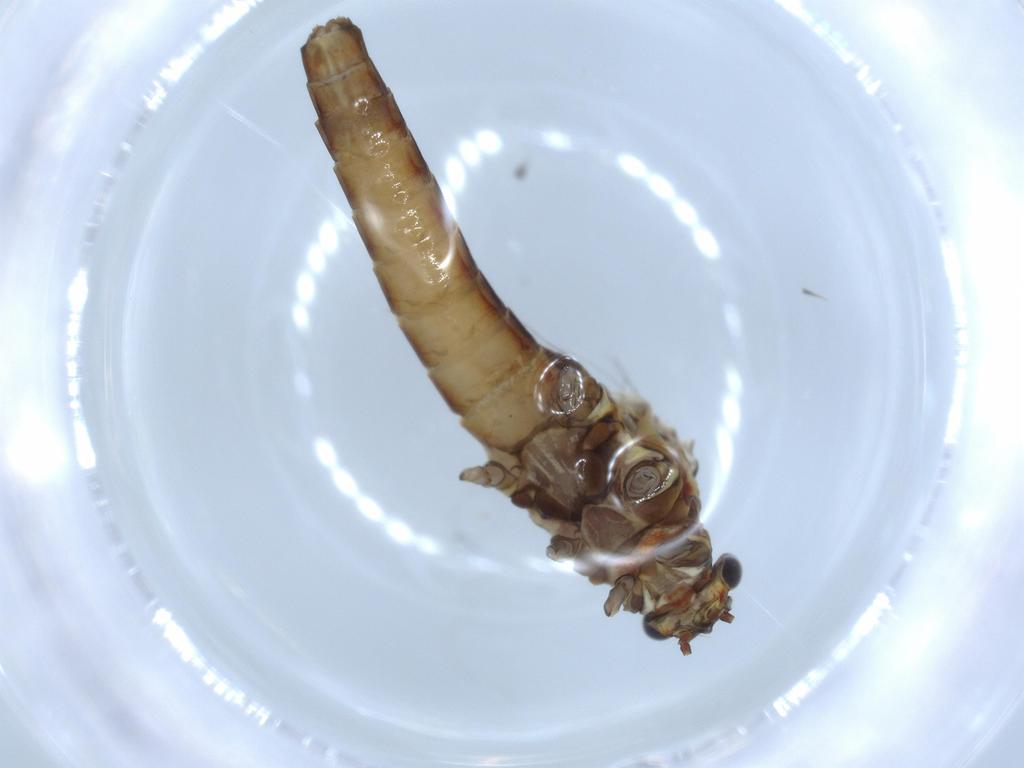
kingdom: Animalia
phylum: Arthropoda
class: Insecta
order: Ephemeroptera
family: Baetidae
